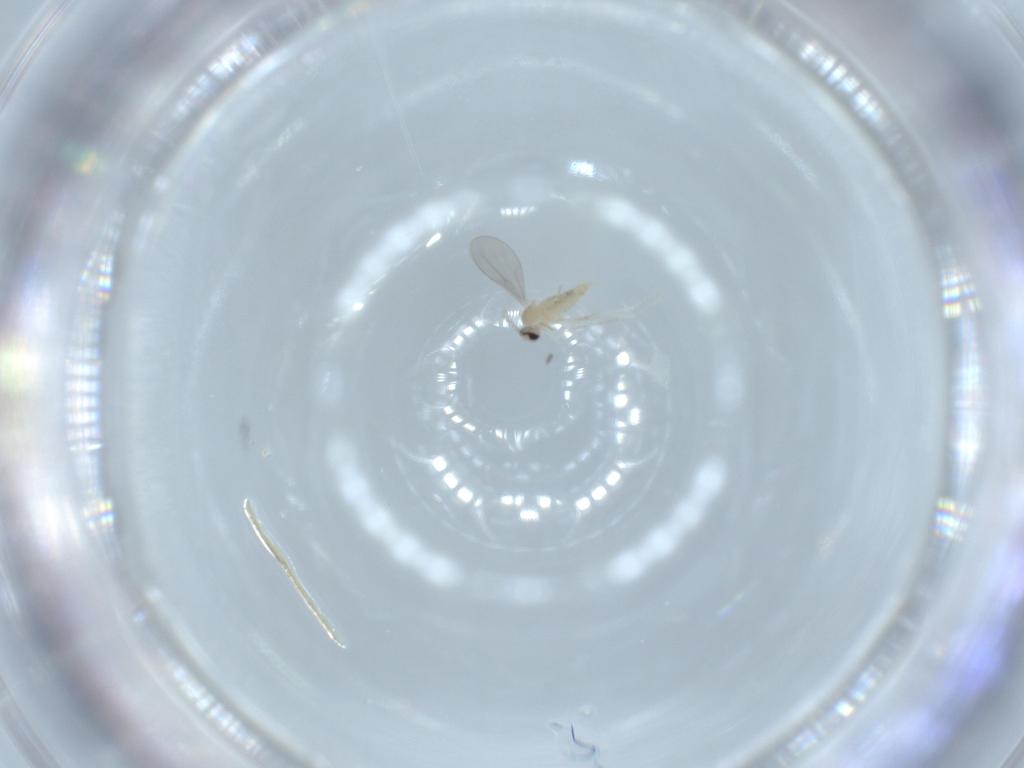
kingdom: Animalia
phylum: Arthropoda
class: Insecta
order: Diptera
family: Cecidomyiidae
